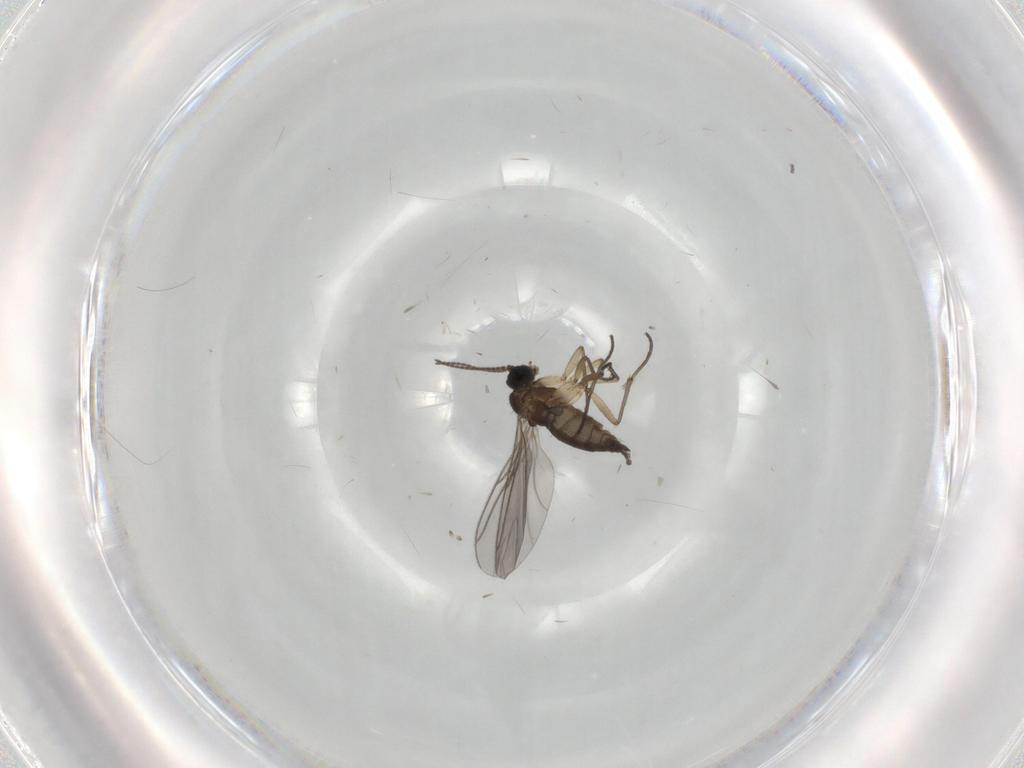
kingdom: Animalia
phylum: Arthropoda
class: Insecta
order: Diptera
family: Sciaridae
